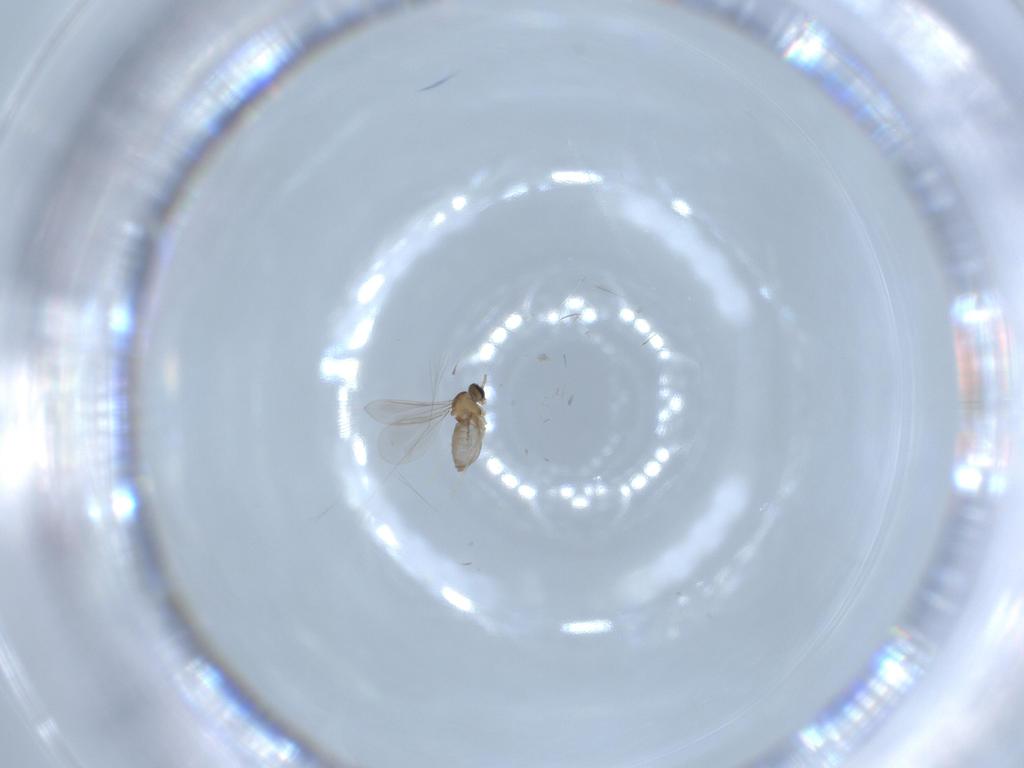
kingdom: Animalia
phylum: Arthropoda
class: Insecta
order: Diptera
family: Cecidomyiidae
